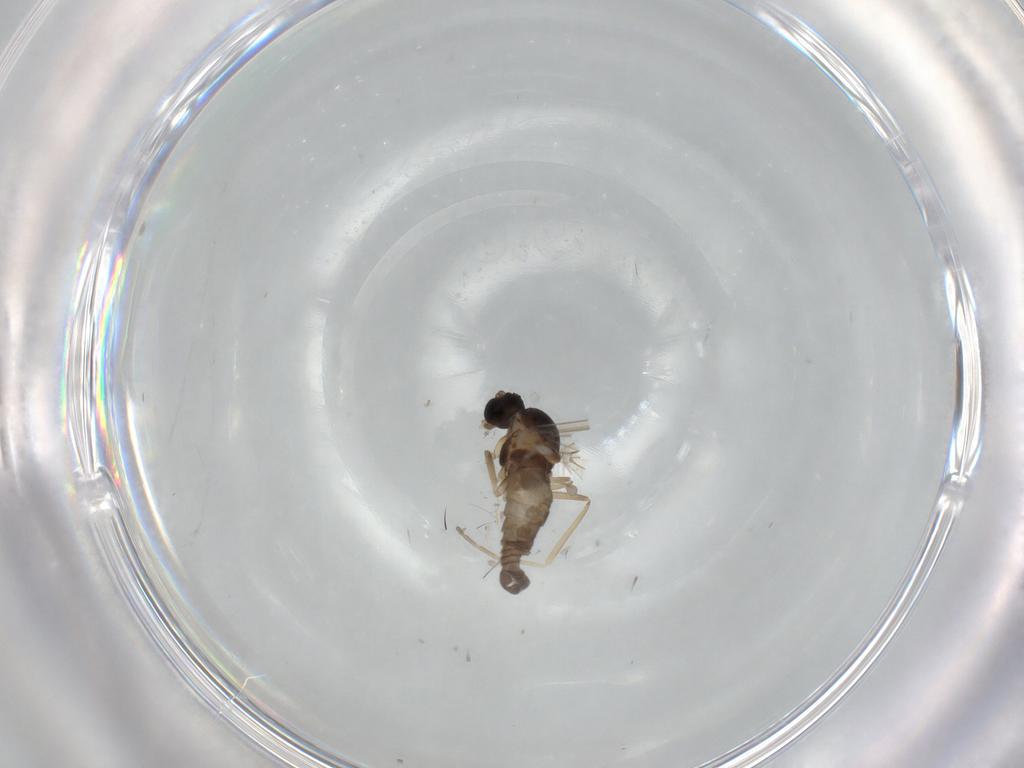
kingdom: Animalia
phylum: Arthropoda
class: Insecta
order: Diptera
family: Cecidomyiidae
